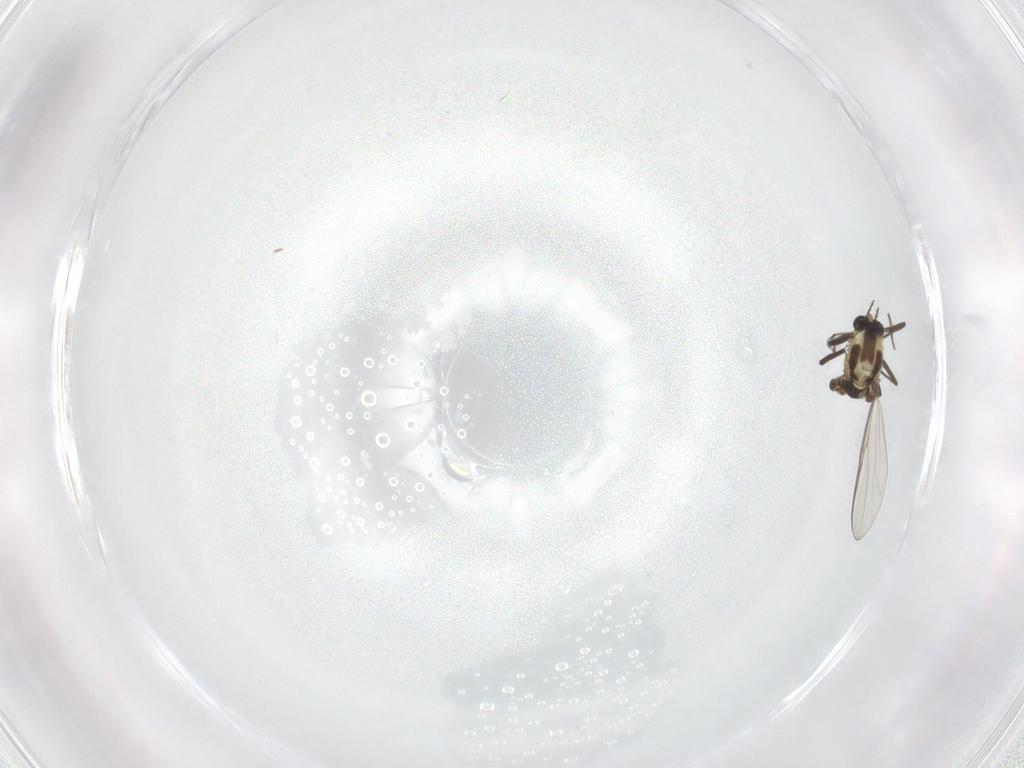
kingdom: Animalia
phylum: Arthropoda
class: Insecta
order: Diptera
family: Chironomidae
